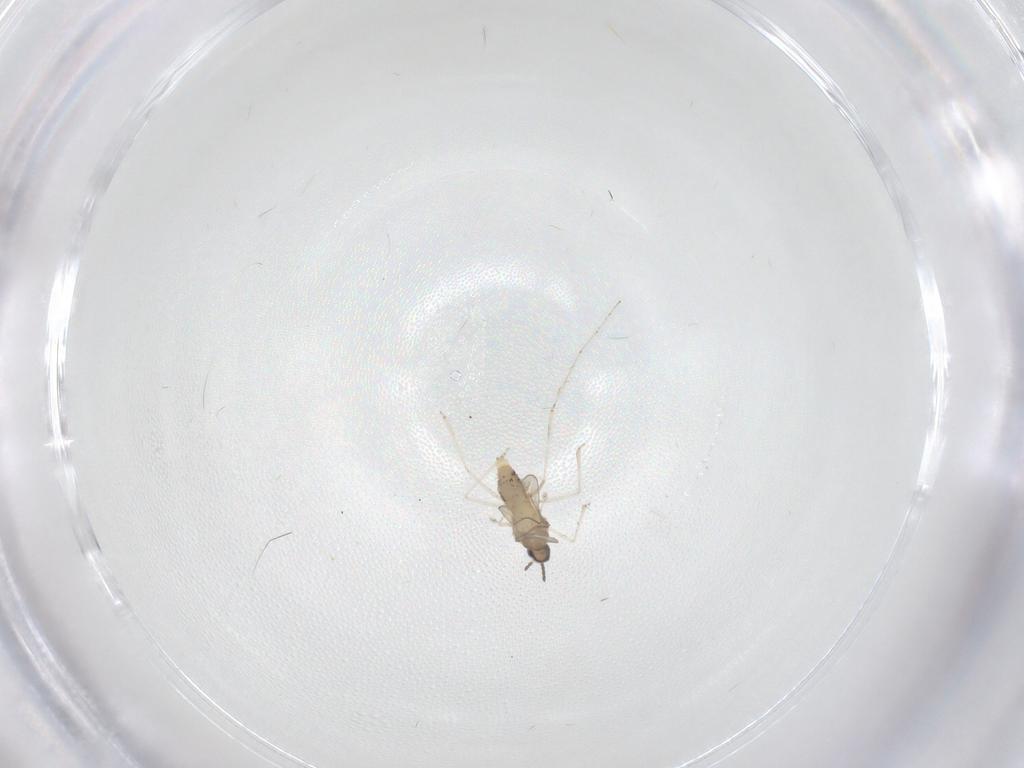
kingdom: Animalia
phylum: Arthropoda
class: Insecta
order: Diptera
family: Tabanidae
